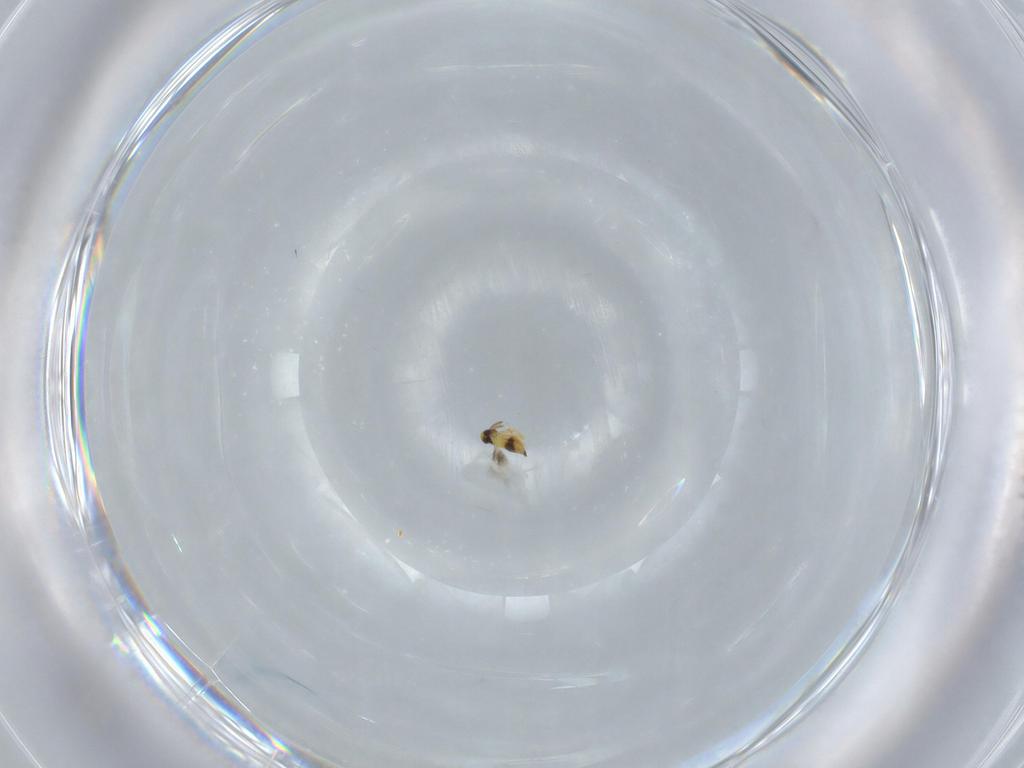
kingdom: Animalia
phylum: Arthropoda
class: Insecta
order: Hymenoptera
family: Signiphoridae
